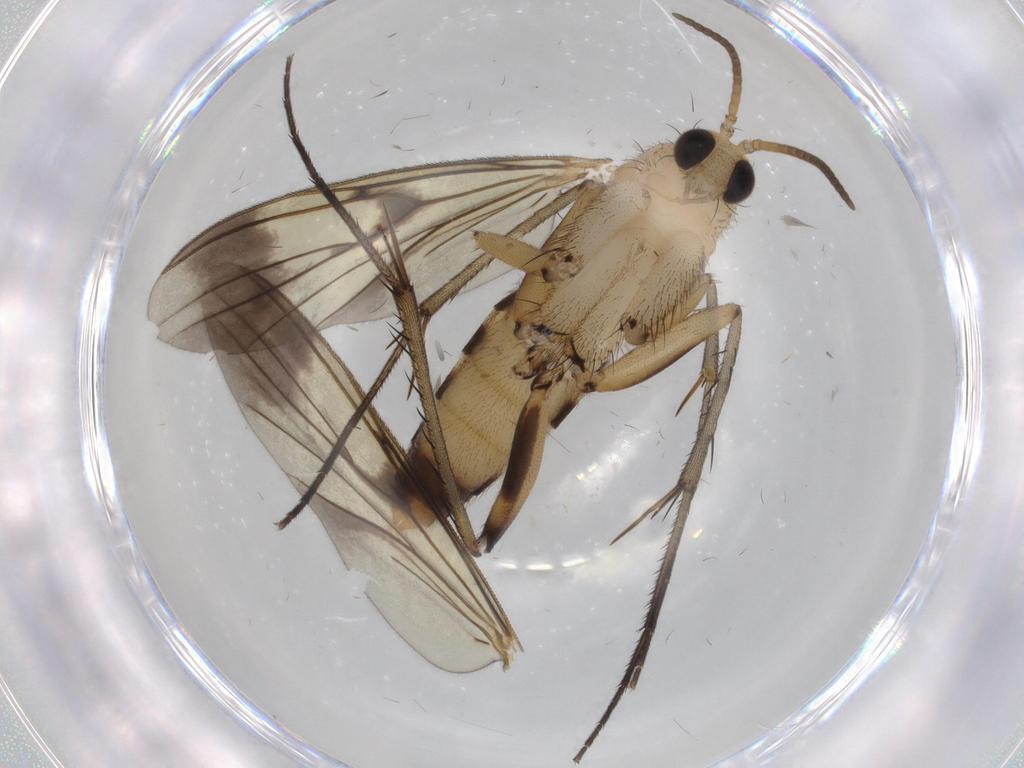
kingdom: Animalia
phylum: Arthropoda
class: Insecta
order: Diptera
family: Mycetophilidae
